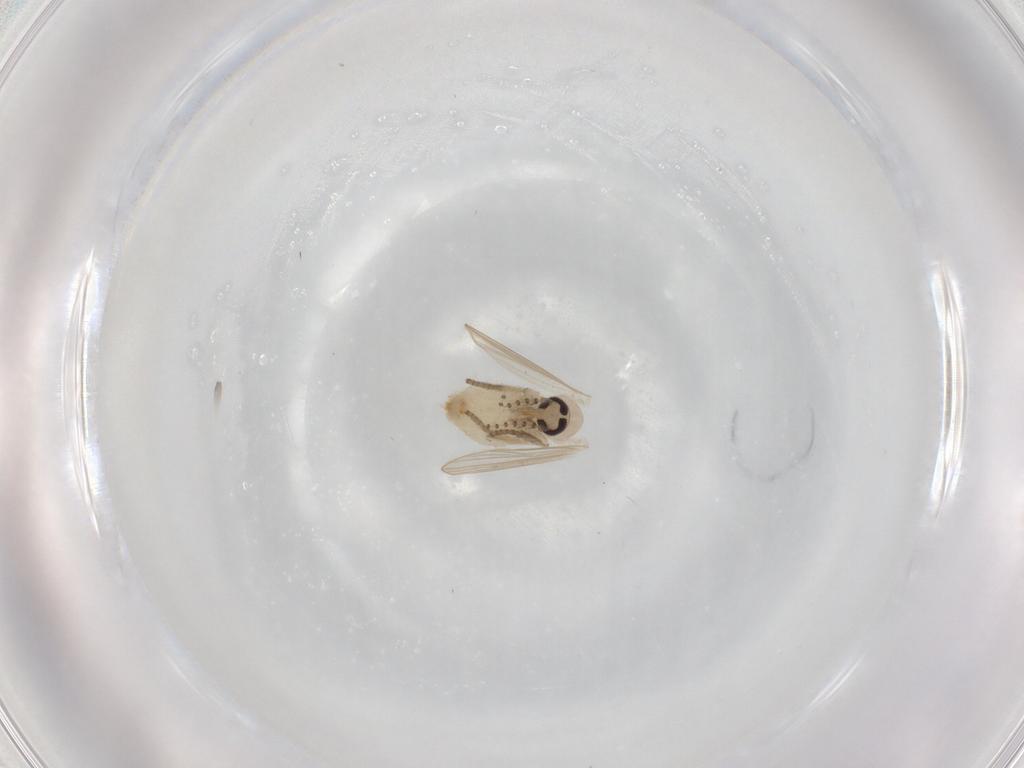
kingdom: Animalia
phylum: Arthropoda
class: Insecta
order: Diptera
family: Psychodidae
